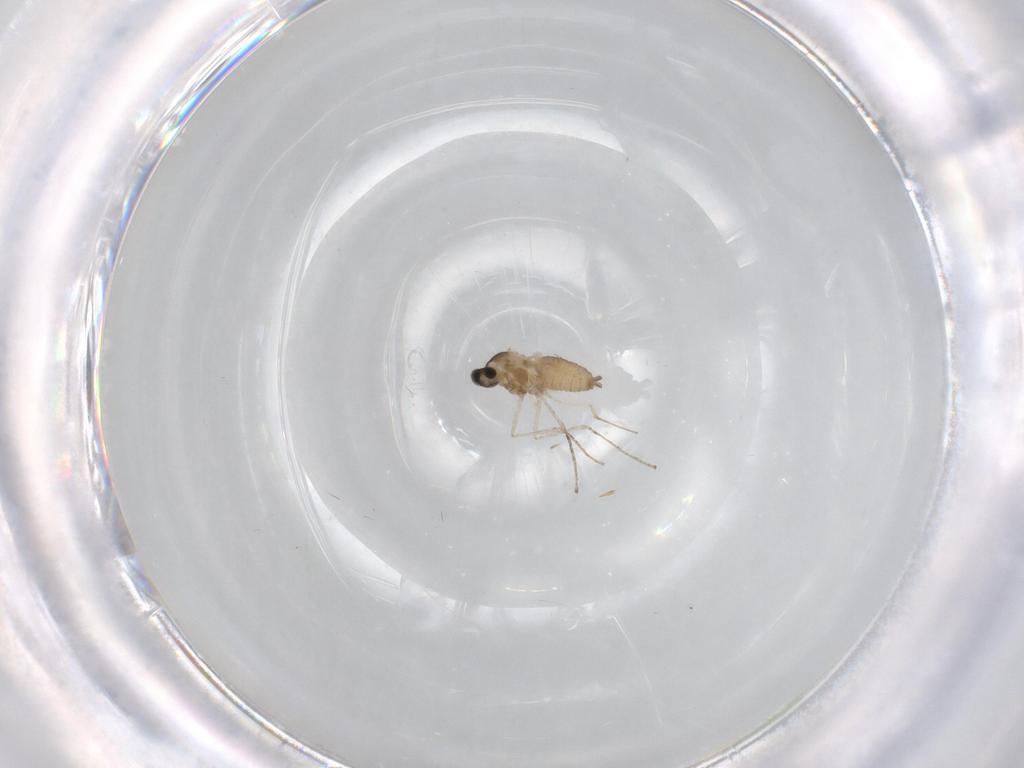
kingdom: Animalia
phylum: Arthropoda
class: Insecta
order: Diptera
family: Cecidomyiidae
